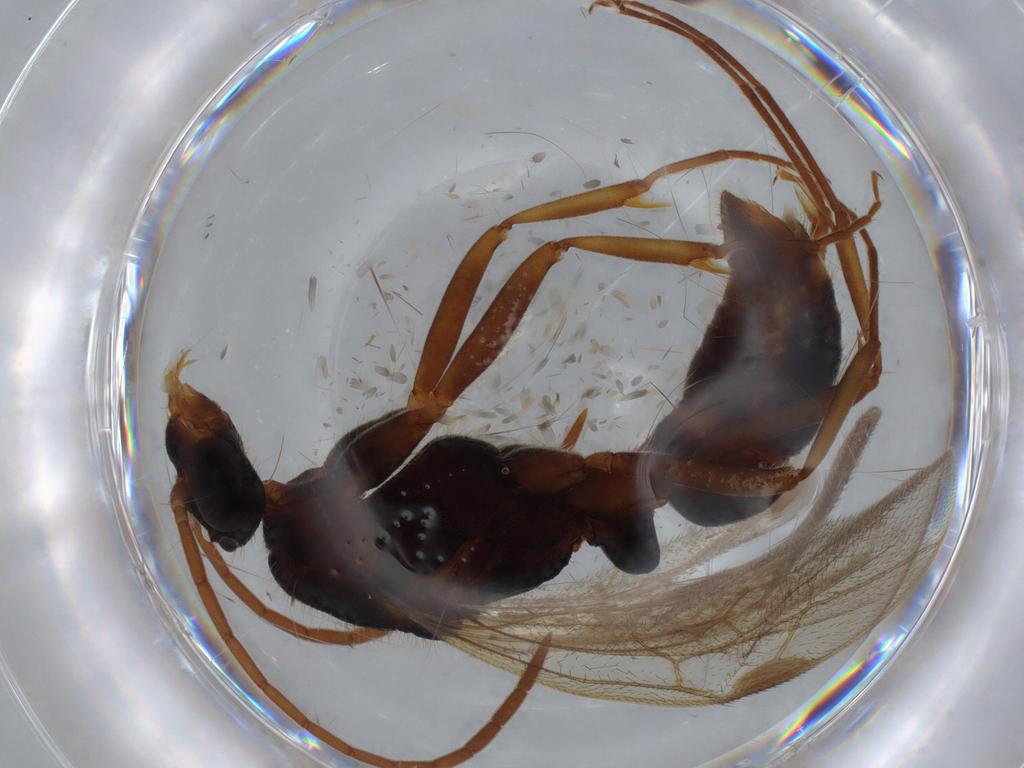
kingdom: Animalia
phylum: Arthropoda
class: Insecta
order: Hymenoptera
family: Formicidae
